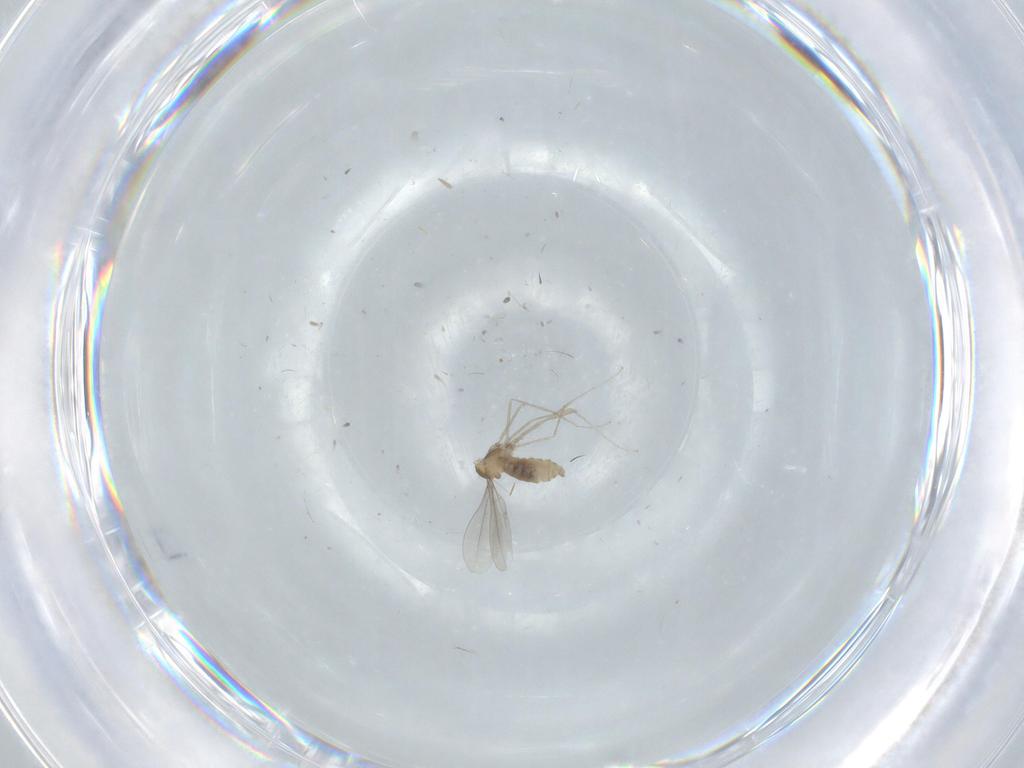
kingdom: Animalia
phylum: Arthropoda
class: Insecta
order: Diptera
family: Cecidomyiidae
